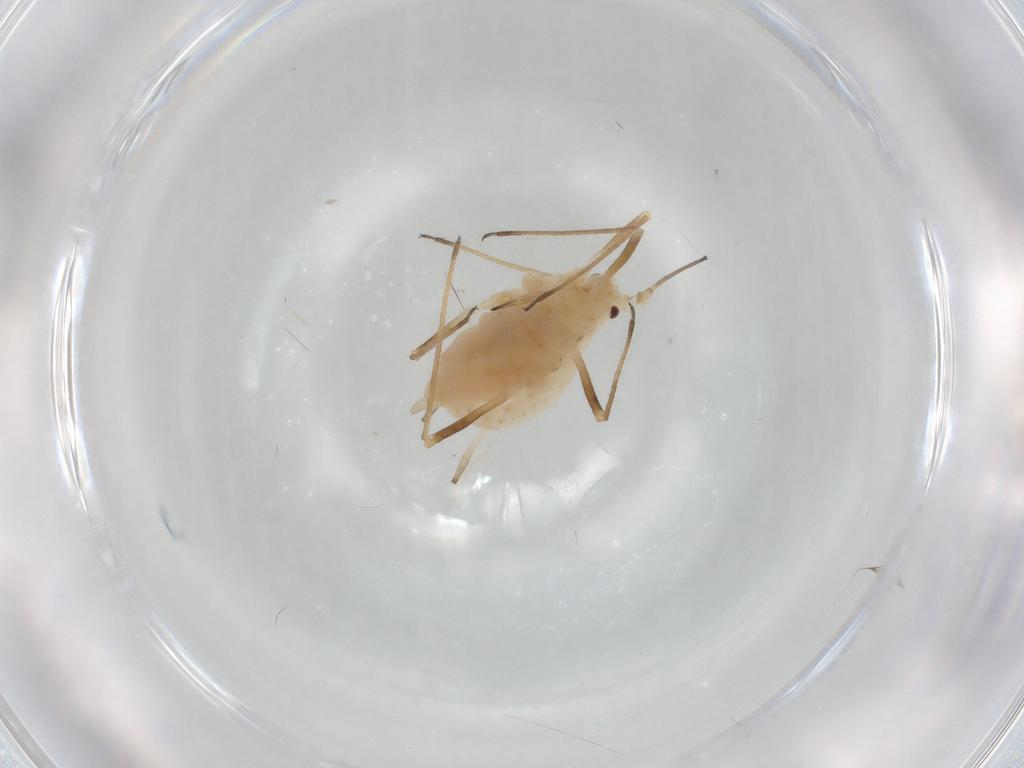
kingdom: Animalia
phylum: Arthropoda
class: Insecta
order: Hemiptera
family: Aphididae
